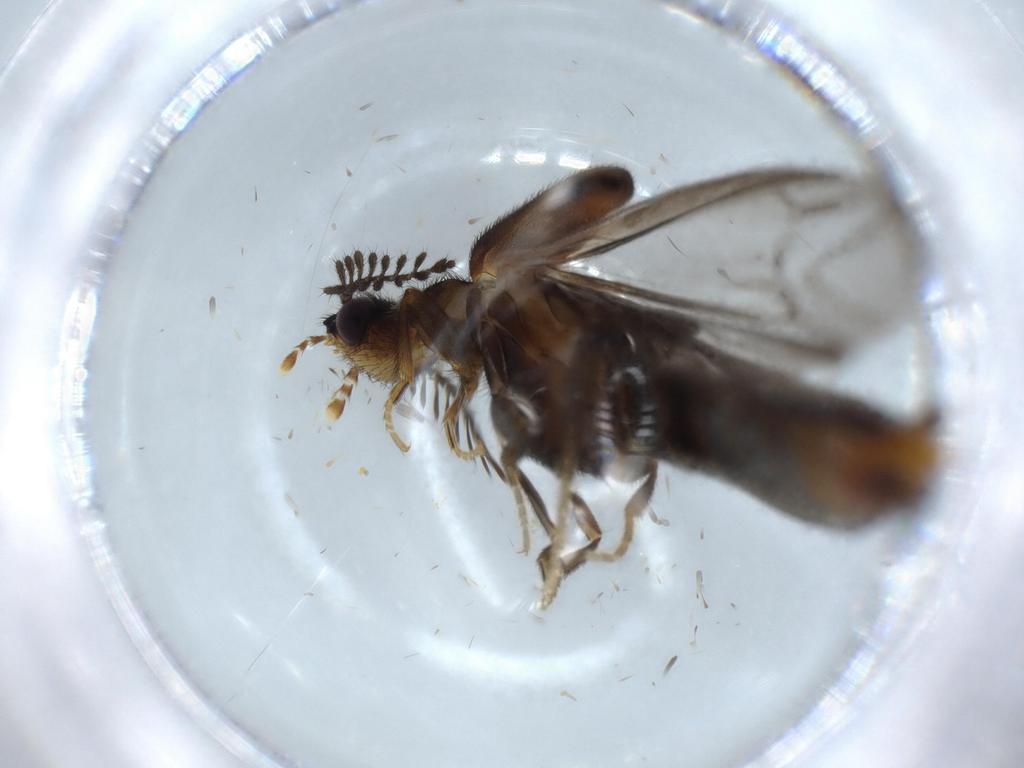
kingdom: Animalia
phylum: Arthropoda
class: Insecta
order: Coleoptera
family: Phengodidae
